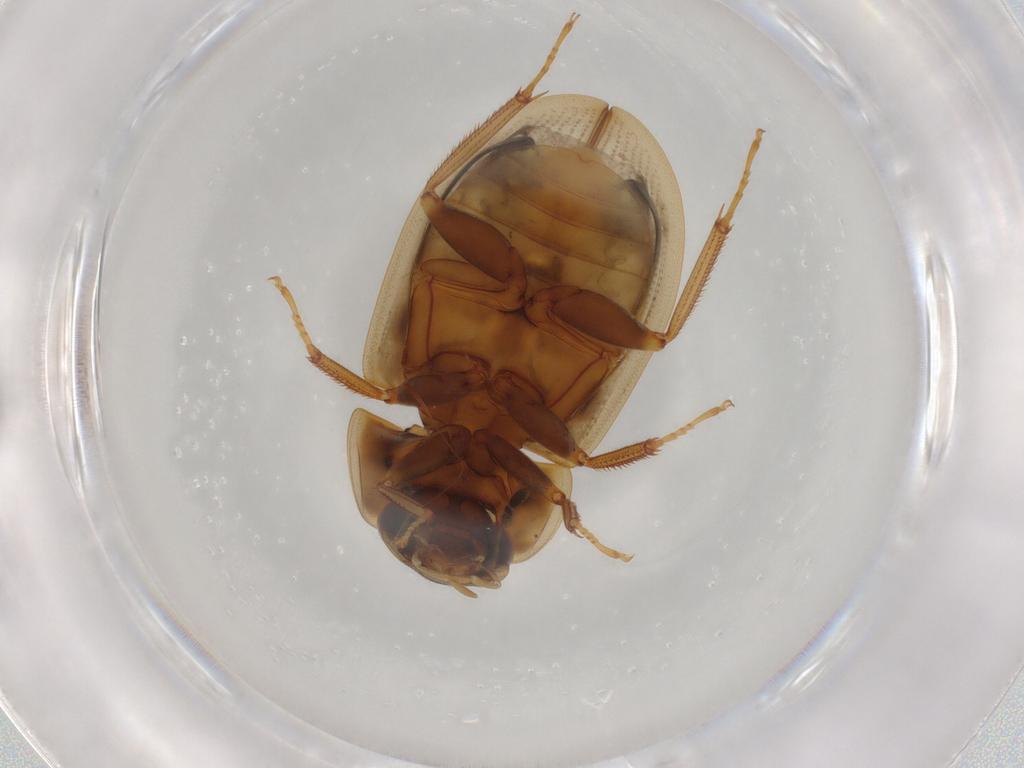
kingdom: Animalia
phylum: Arthropoda
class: Insecta
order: Coleoptera
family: Hydrophilidae
